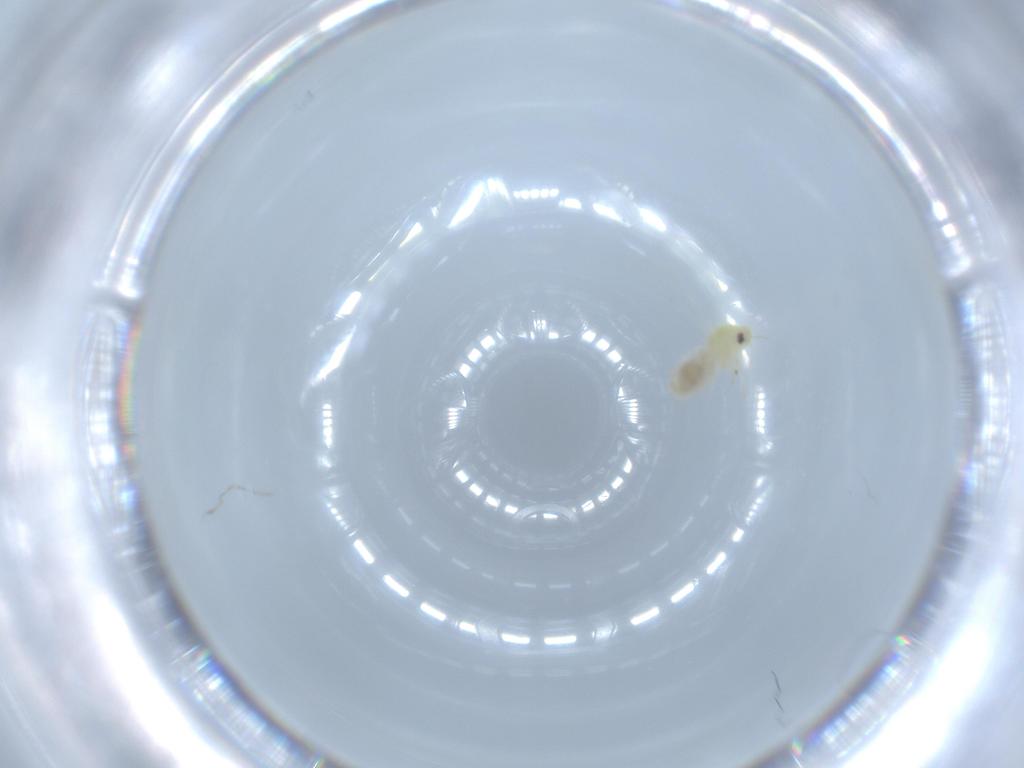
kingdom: Animalia
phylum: Arthropoda
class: Insecta
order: Hemiptera
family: Aleyrodidae
